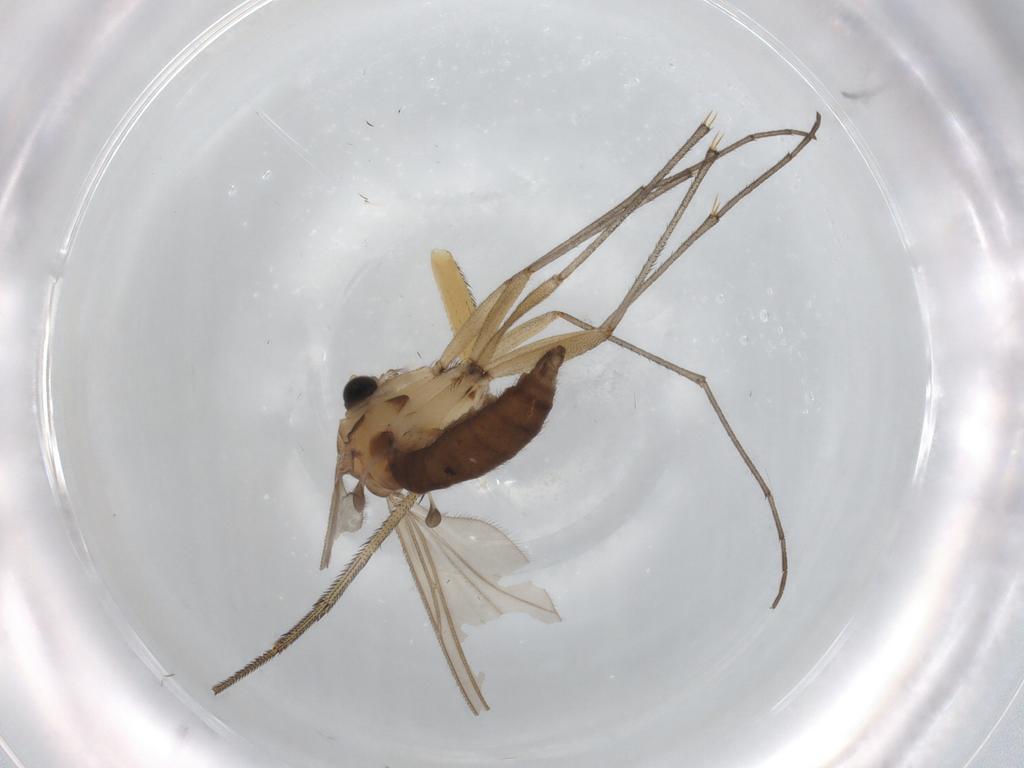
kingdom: Animalia
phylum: Arthropoda
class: Insecta
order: Diptera
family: Sciaridae
